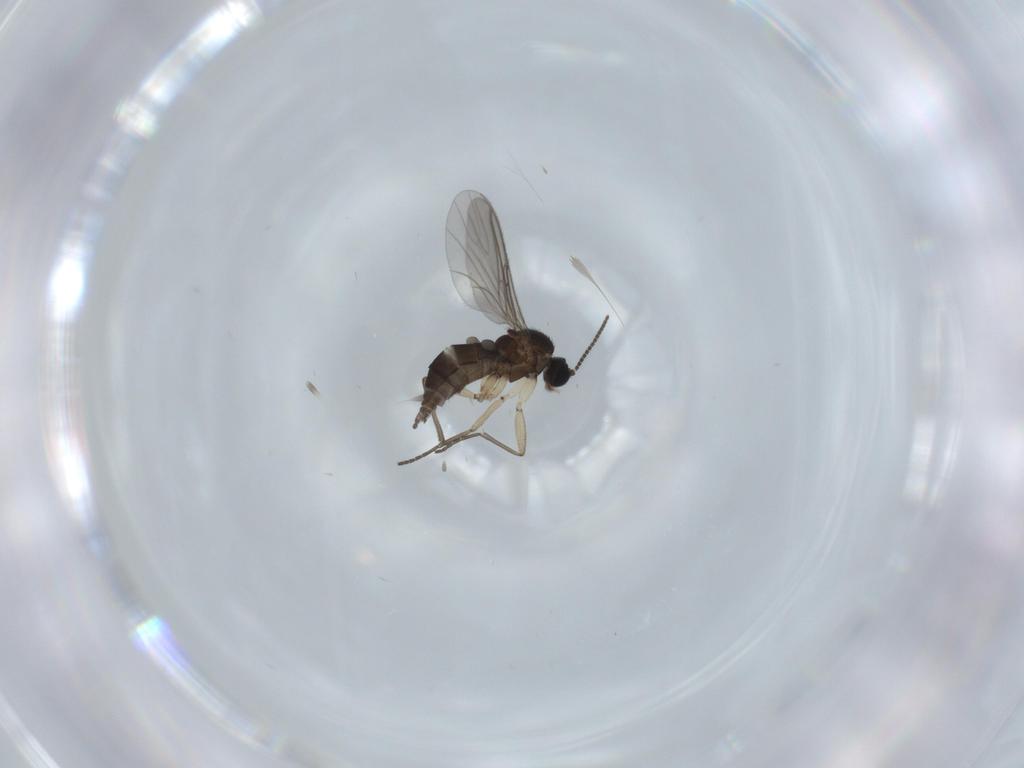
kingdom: Animalia
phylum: Arthropoda
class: Insecta
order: Diptera
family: Sciaridae
